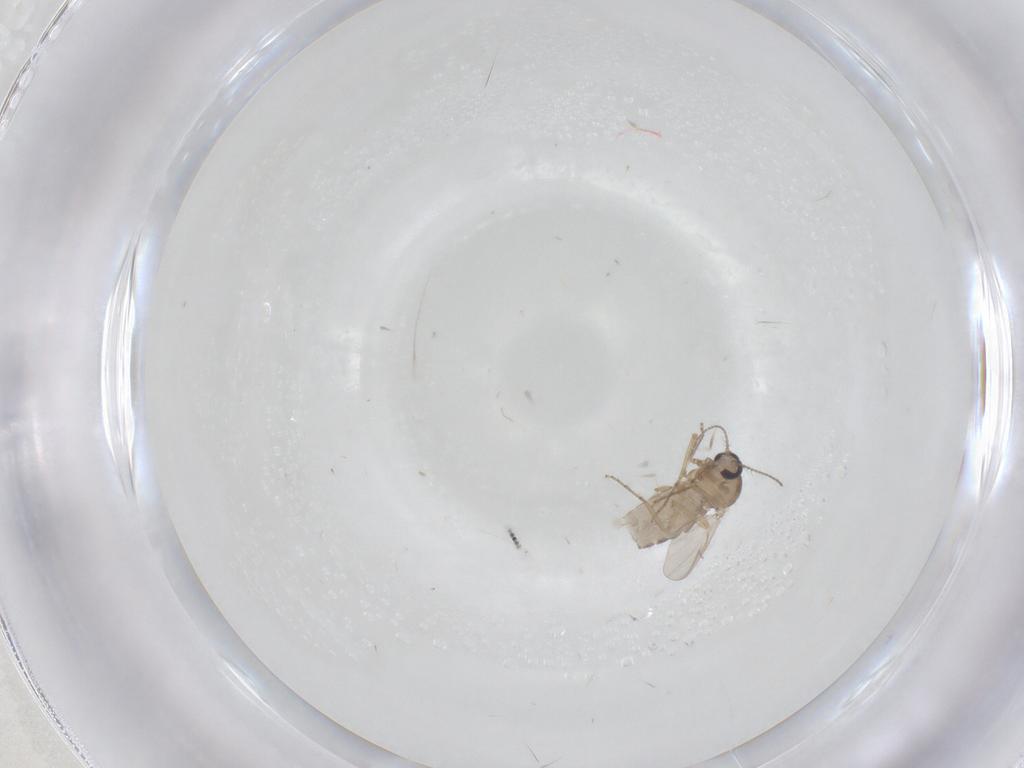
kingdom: Animalia
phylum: Arthropoda
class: Insecta
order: Diptera
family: Ceratopogonidae
